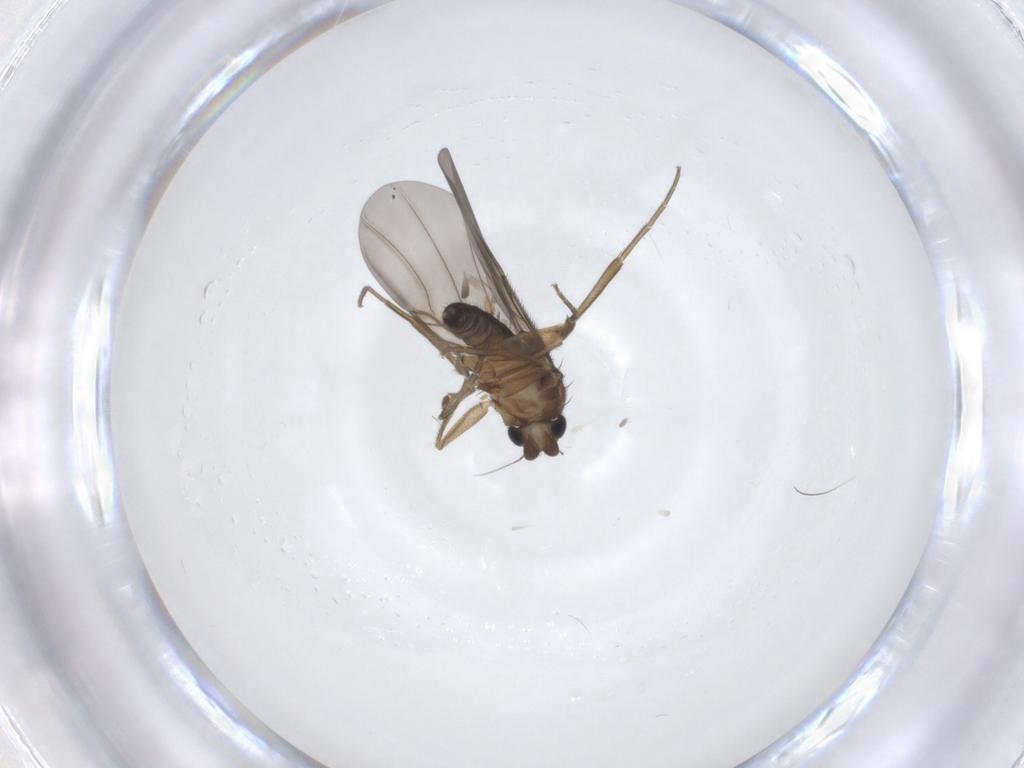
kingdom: Animalia
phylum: Arthropoda
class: Insecta
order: Diptera
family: Phoridae
